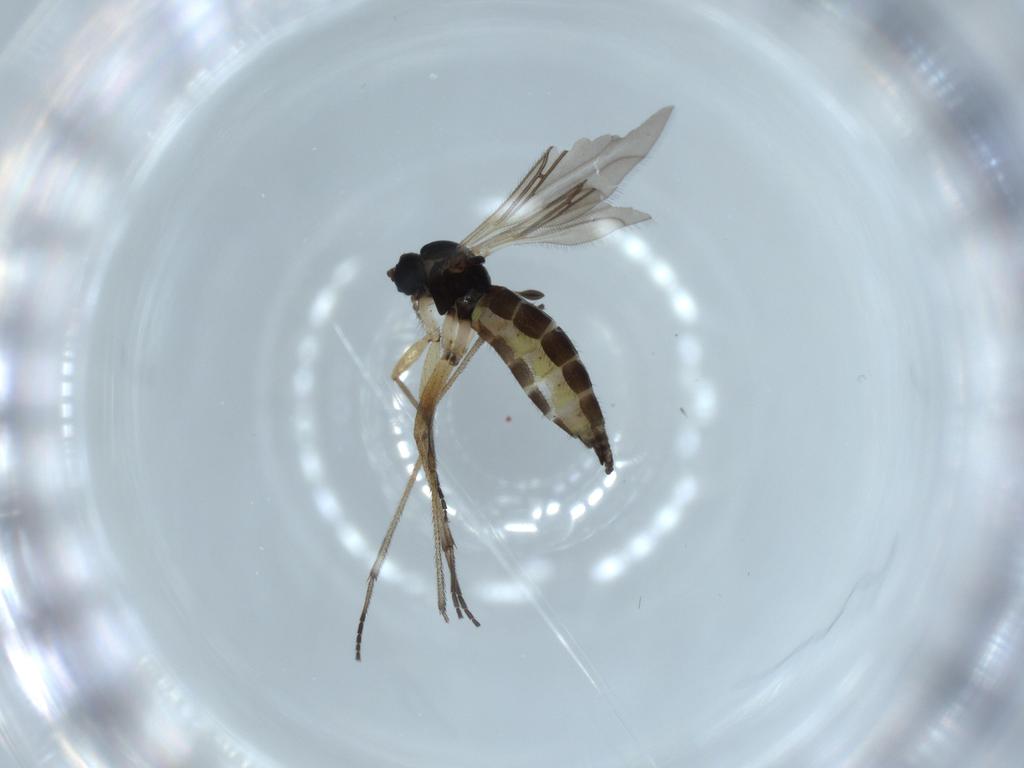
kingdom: Animalia
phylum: Arthropoda
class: Insecta
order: Diptera
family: Sciaridae
